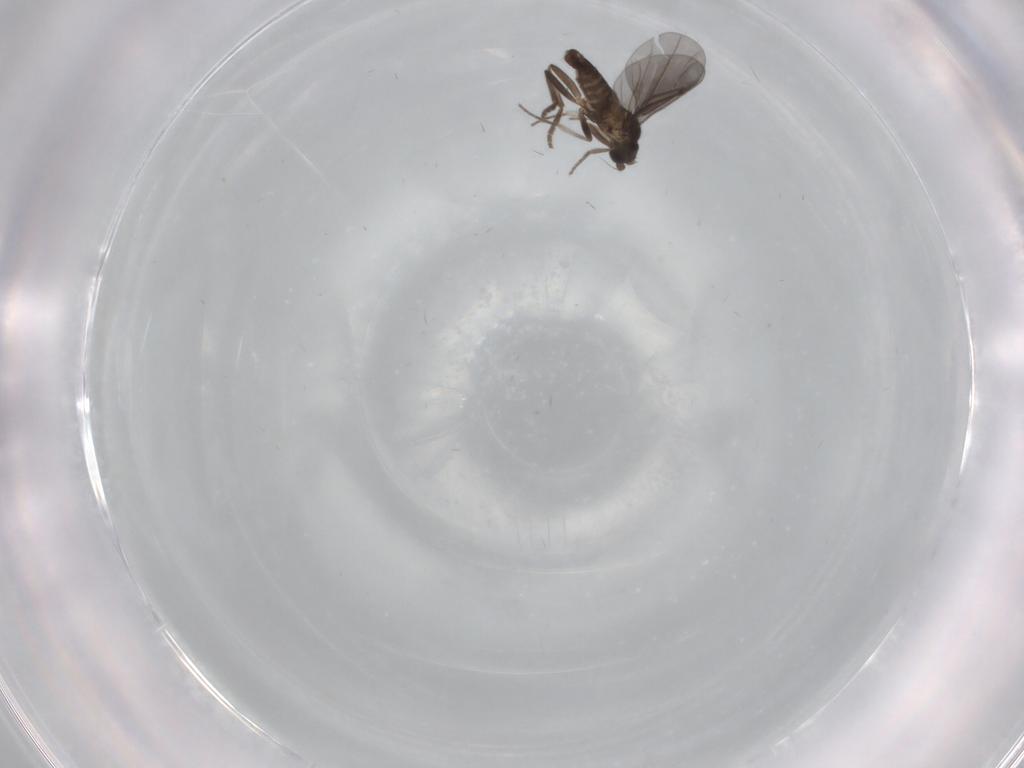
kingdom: Animalia
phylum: Arthropoda
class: Insecta
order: Diptera
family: Phoridae
